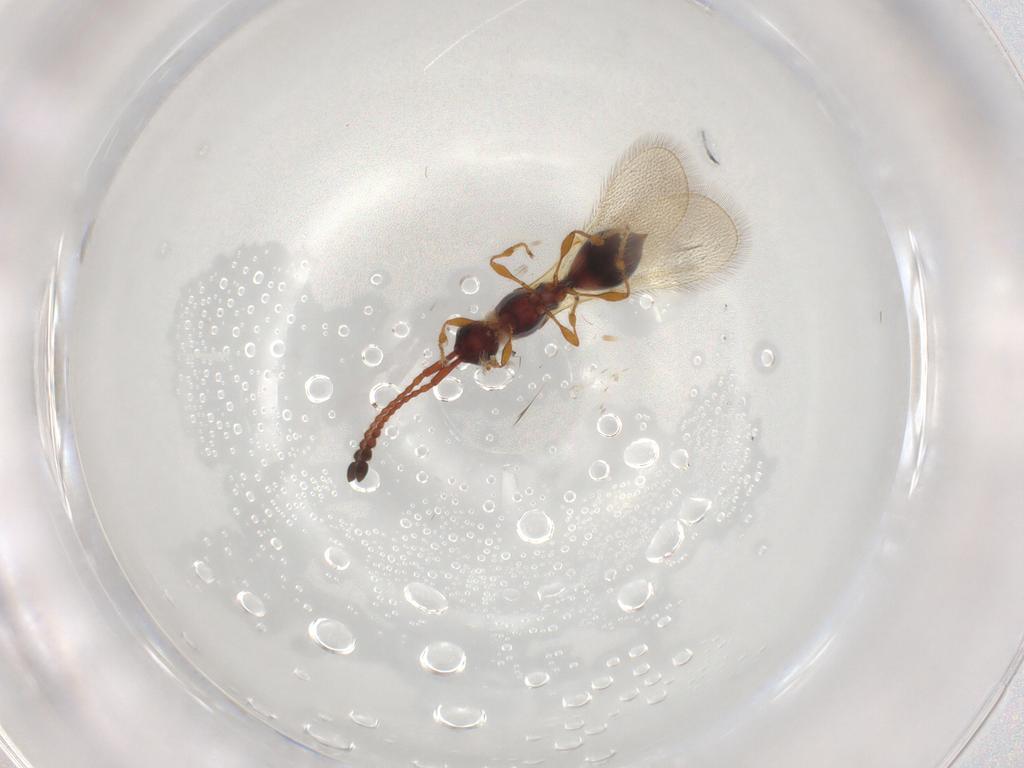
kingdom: Animalia
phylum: Arthropoda
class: Insecta
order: Hymenoptera
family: Diapriidae
